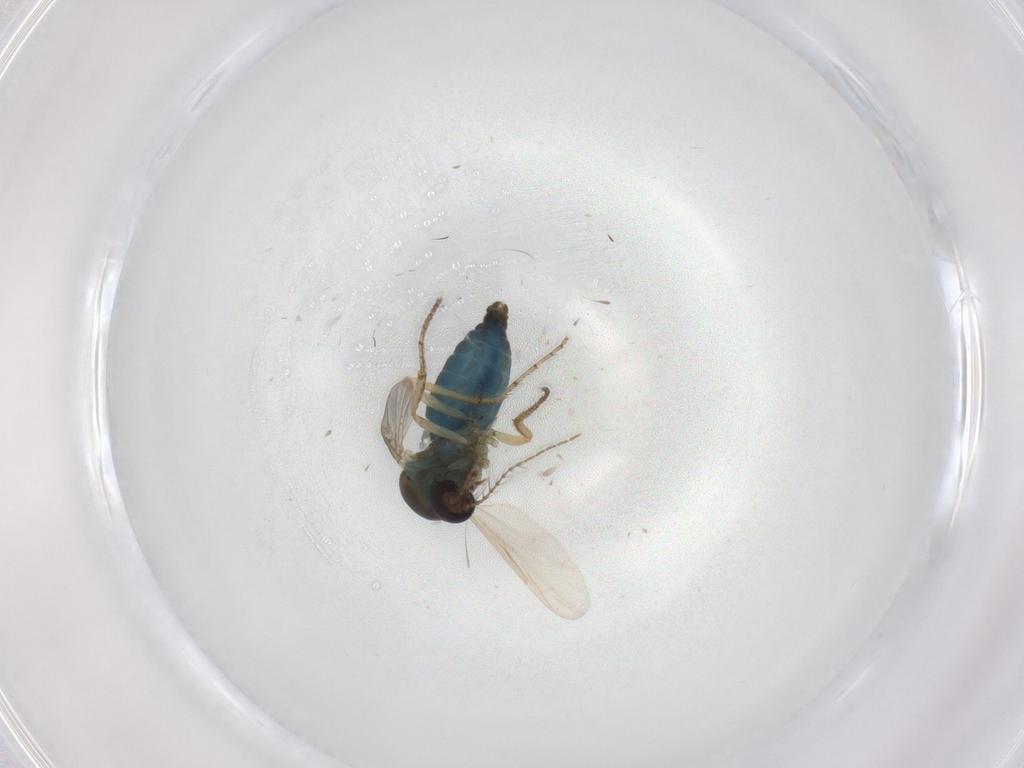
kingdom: Animalia
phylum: Arthropoda
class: Insecta
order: Diptera
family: Ceratopogonidae
